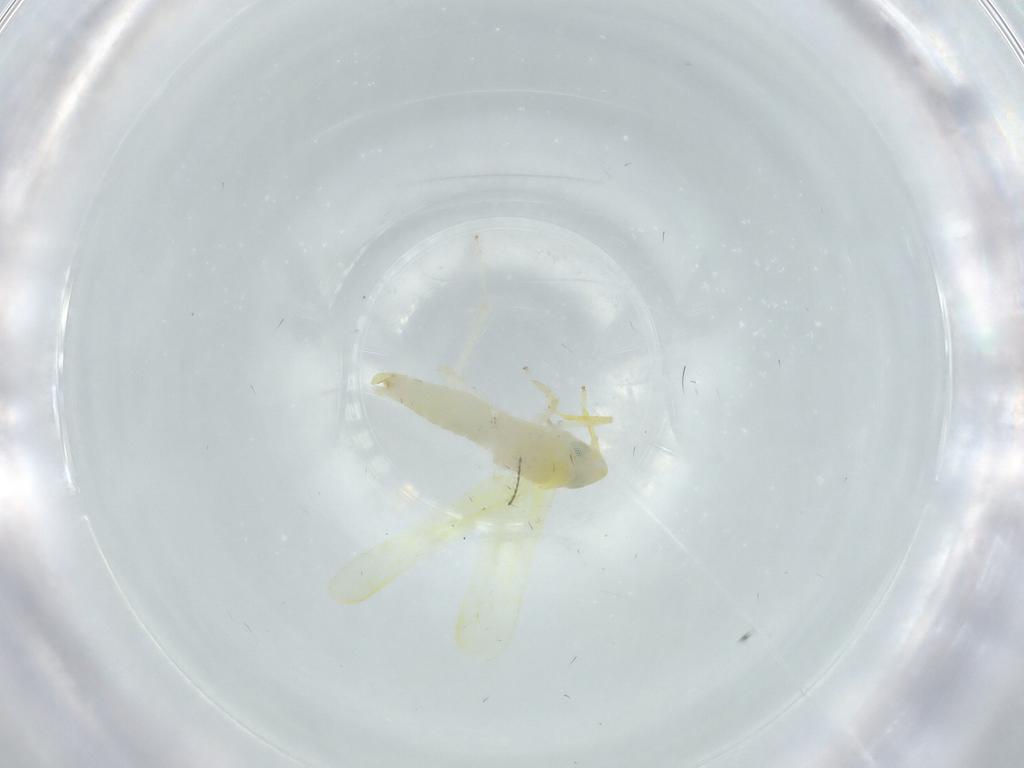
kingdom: Animalia
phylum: Arthropoda
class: Insecta
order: Hemiptera
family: Cicadellidae
